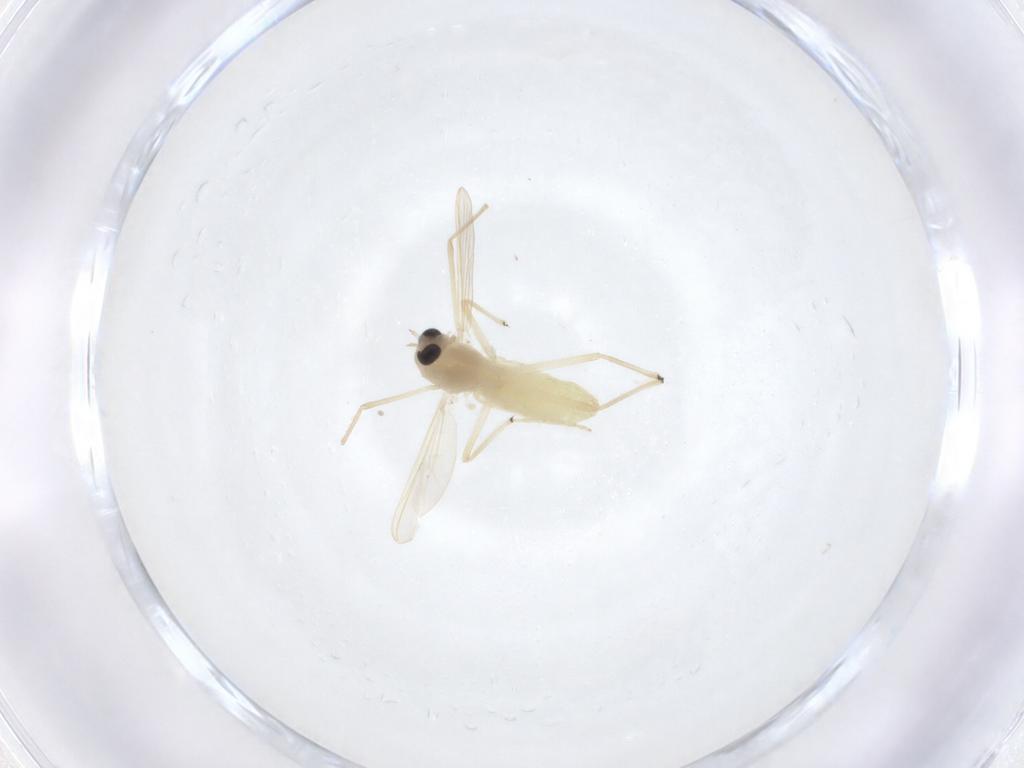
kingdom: Animalia
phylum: Arthropoda
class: Insecta
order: Diptera
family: Chironomidae
